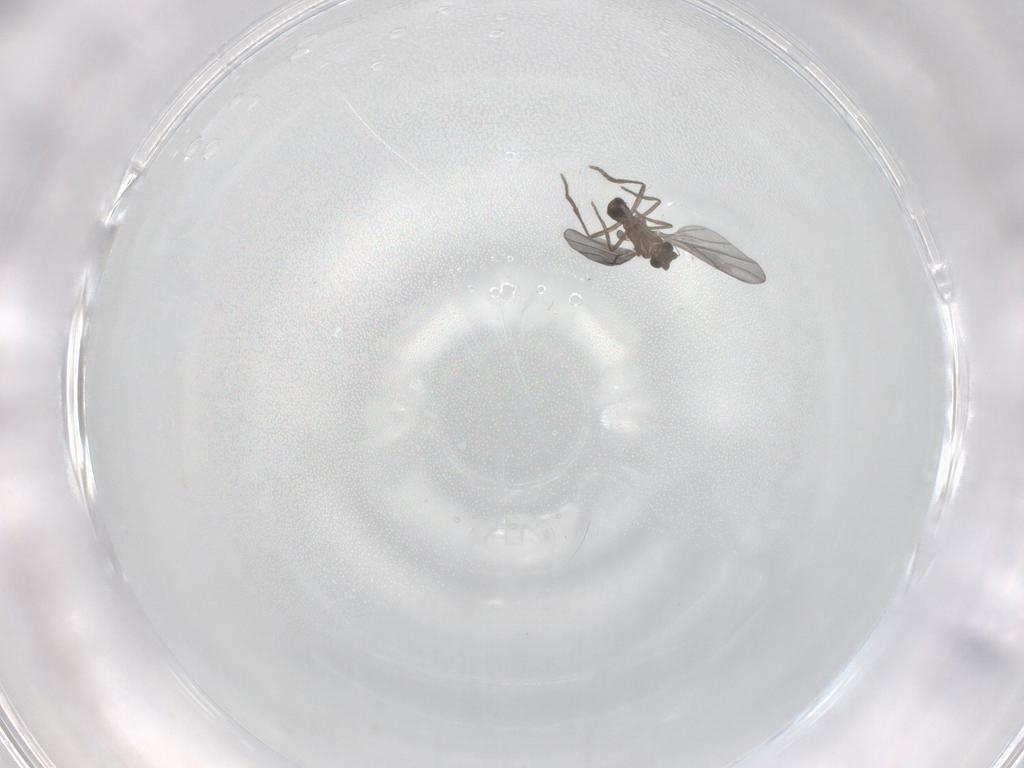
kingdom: Animalia
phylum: Arthropoda
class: Insecta
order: Diptera
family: Phoridae
